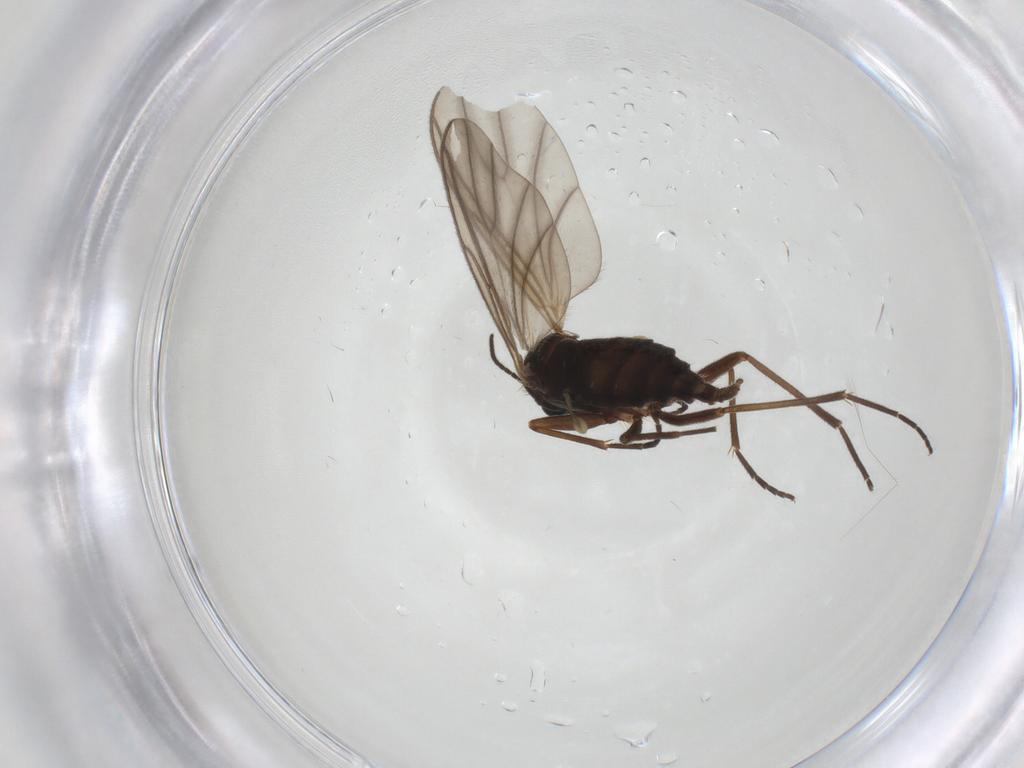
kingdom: Animalia
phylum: Arthropoda
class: Insecta
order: Diptera
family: Sciaridae
